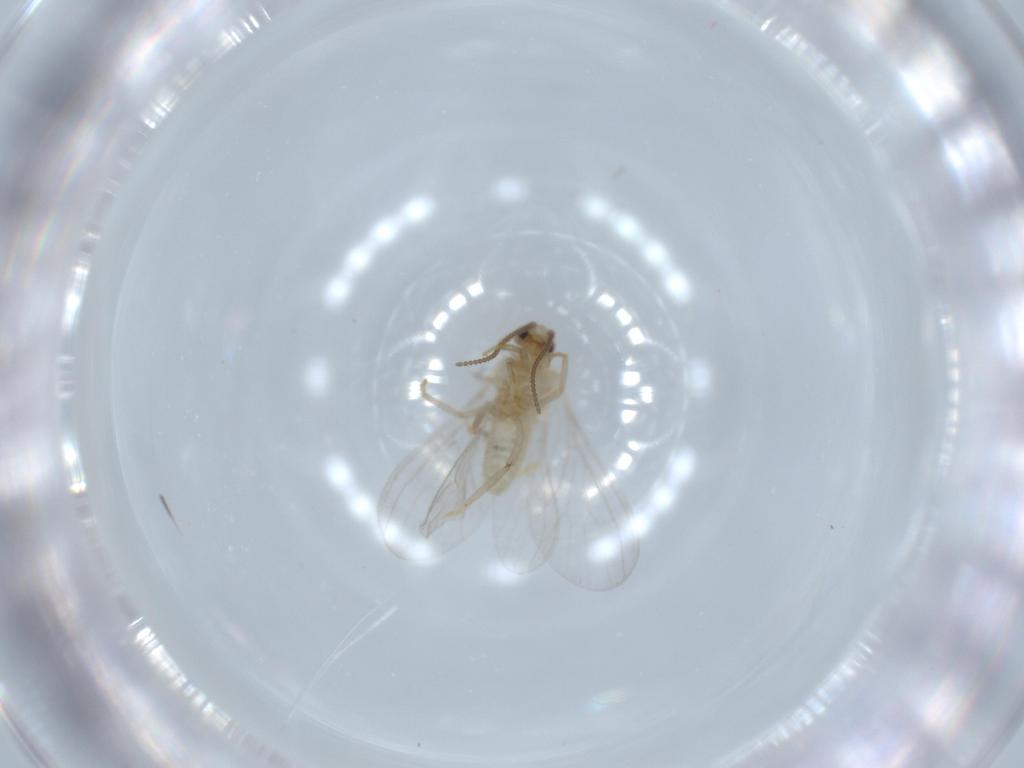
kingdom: Animalia
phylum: Arthropoda
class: Insecta
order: Neuroptera
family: Coniopterygidae
